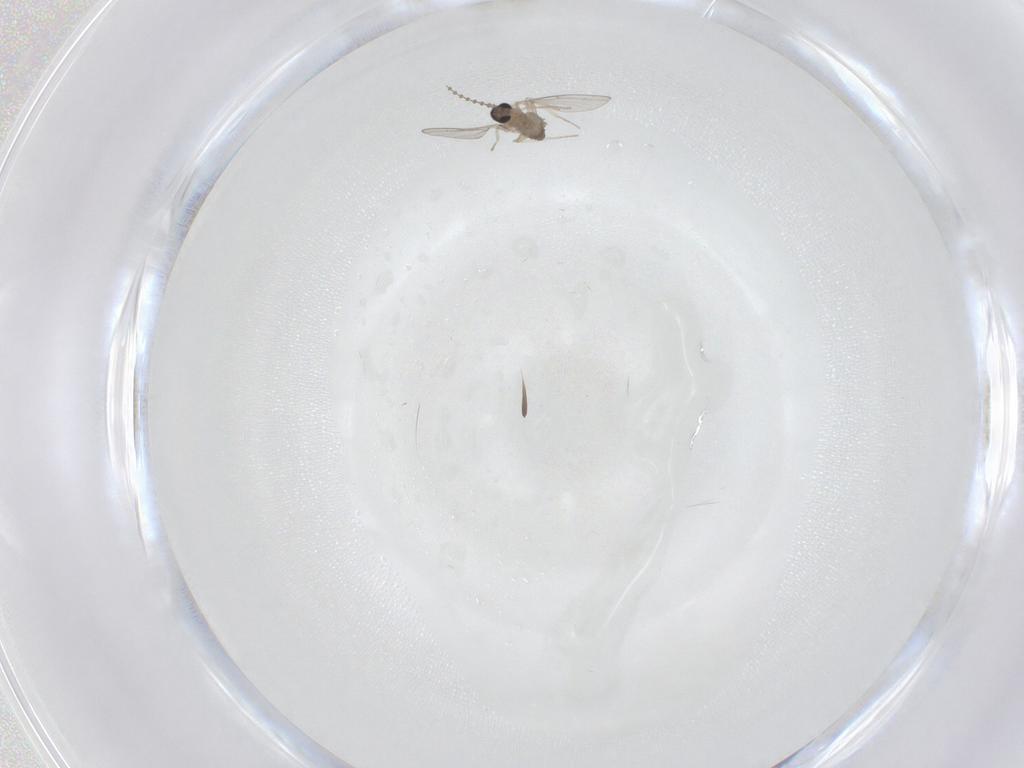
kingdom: Animalia
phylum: Arthropoda
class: Insecta
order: Diptera
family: Cecidomyiidae
